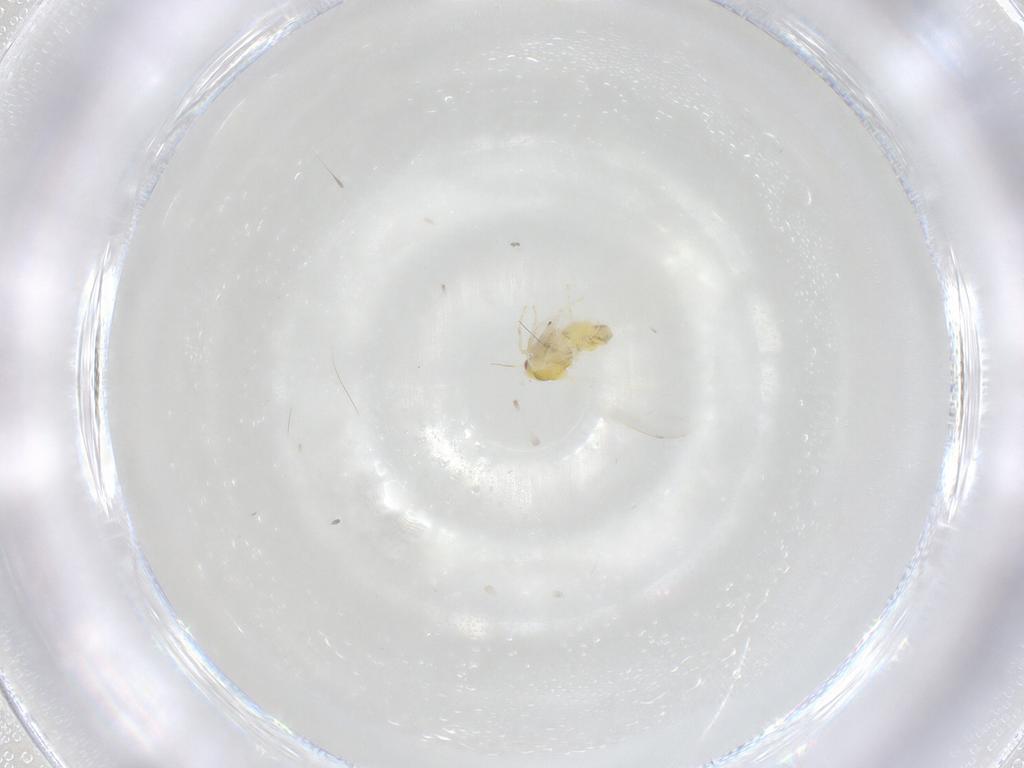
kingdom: Animalia
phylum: Arthropoda
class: Insecta
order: Hemiptera
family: Aleyrodidae
